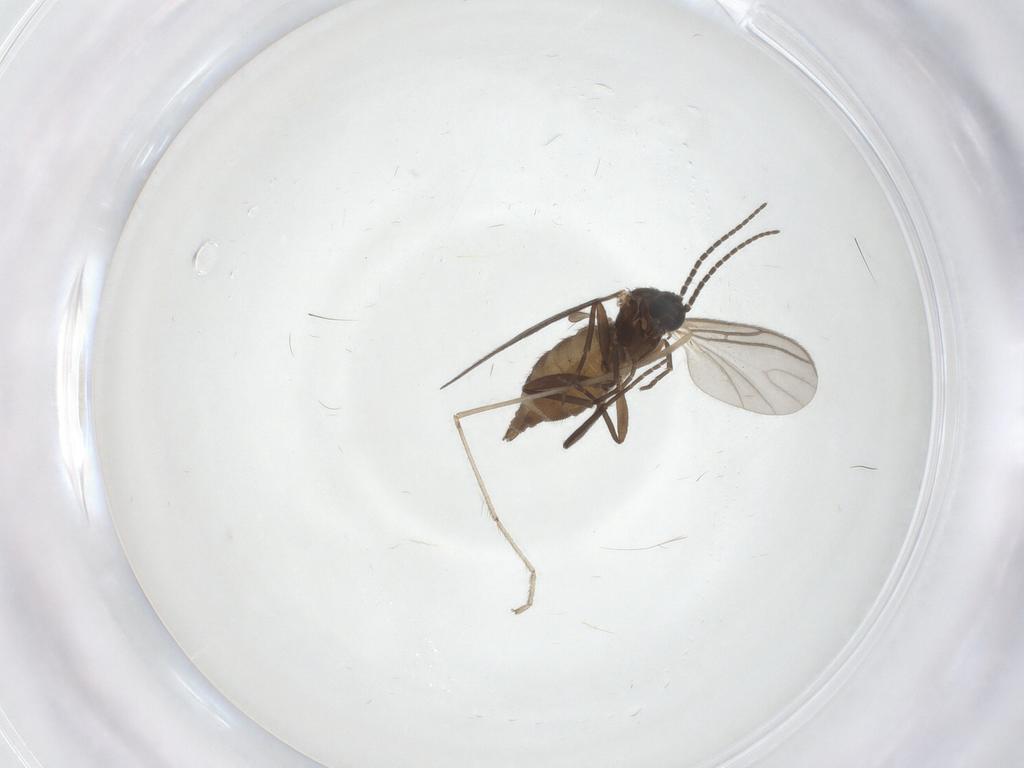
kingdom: Animalia
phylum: Arthropoda
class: Insecta
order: Diptera
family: Sciaridae
